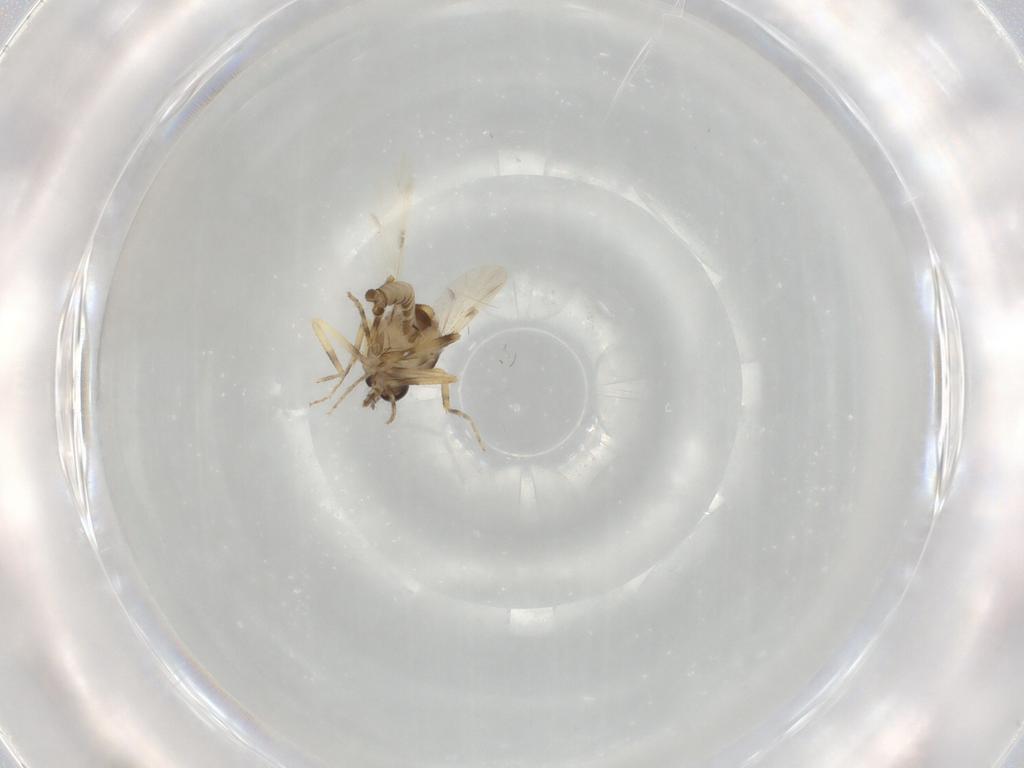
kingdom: Animalia
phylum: Arthropoda
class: Insecta
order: Diptera
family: Ceratopogonidae
